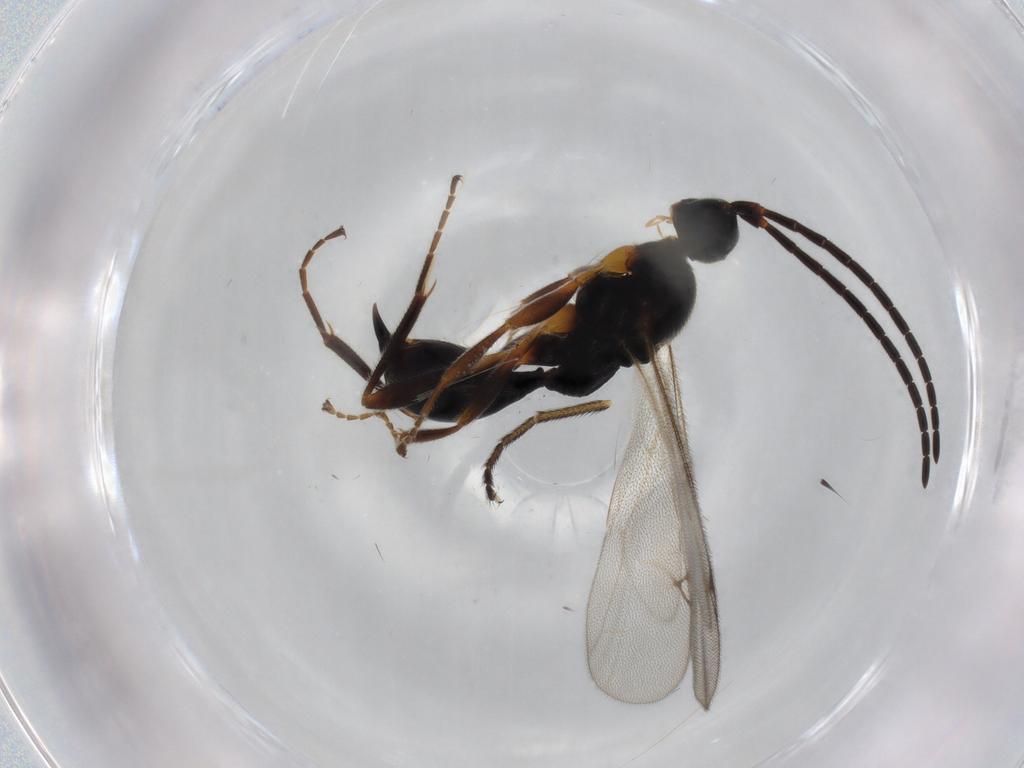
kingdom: Animalia
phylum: Arthropoda
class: Insecta
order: Hymenoptera
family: Proctotrupidae
